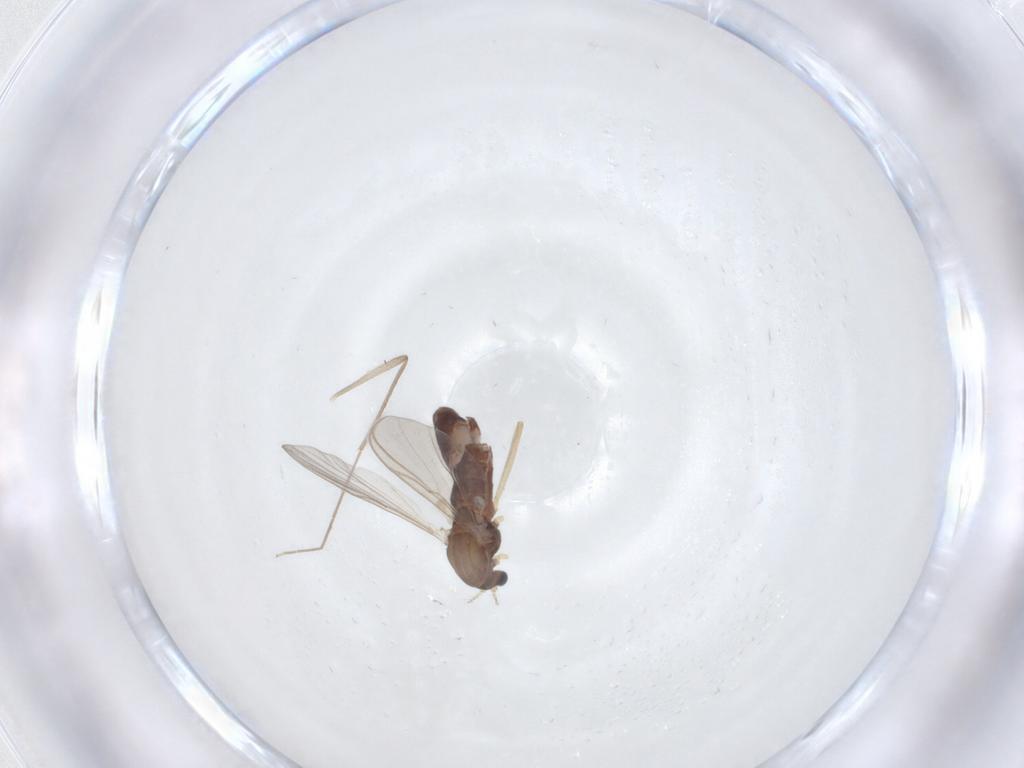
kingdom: Animalia
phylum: Arthropoda
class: Insecta
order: Diptera
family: Chironomidae
